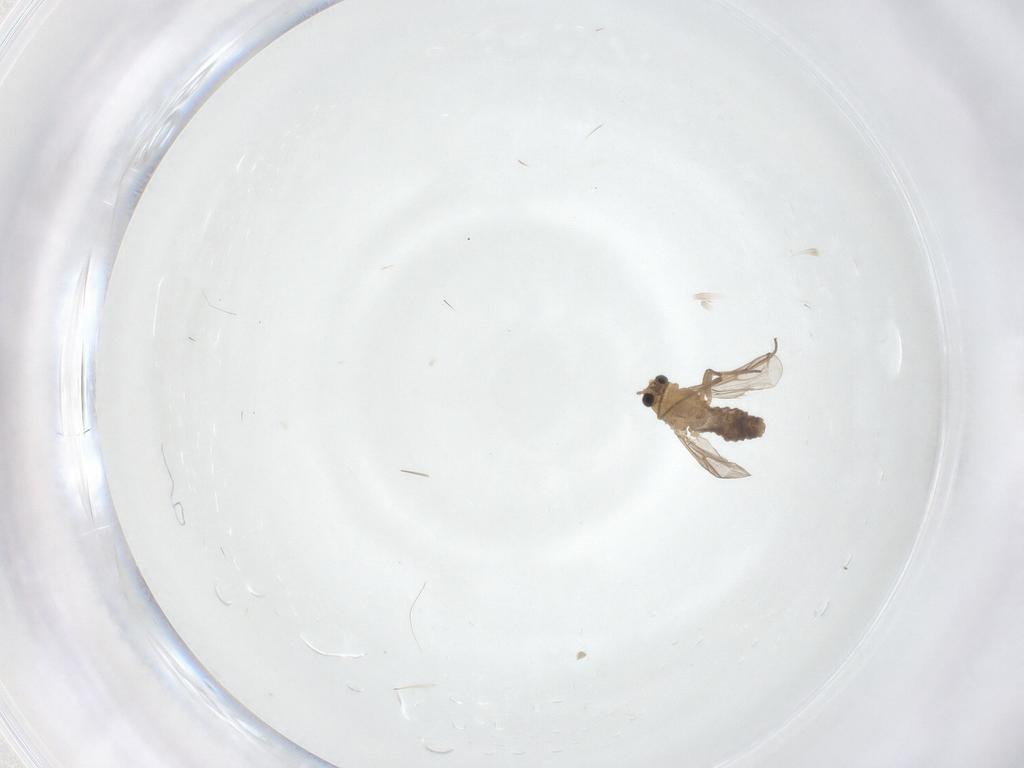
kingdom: Animalia
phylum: Arthropoda
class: Insecta
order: Diptera
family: Chironomidae
